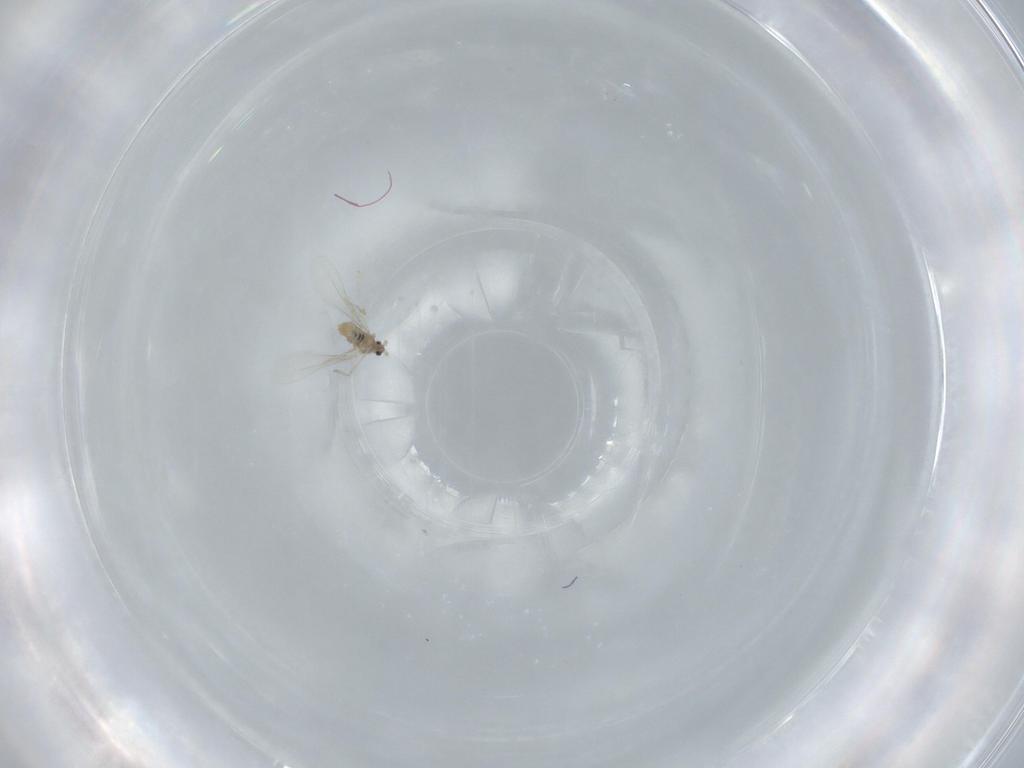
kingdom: Animalia
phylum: Arthropoda
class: Insecta
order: Diptera
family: Cecidomyiidae
